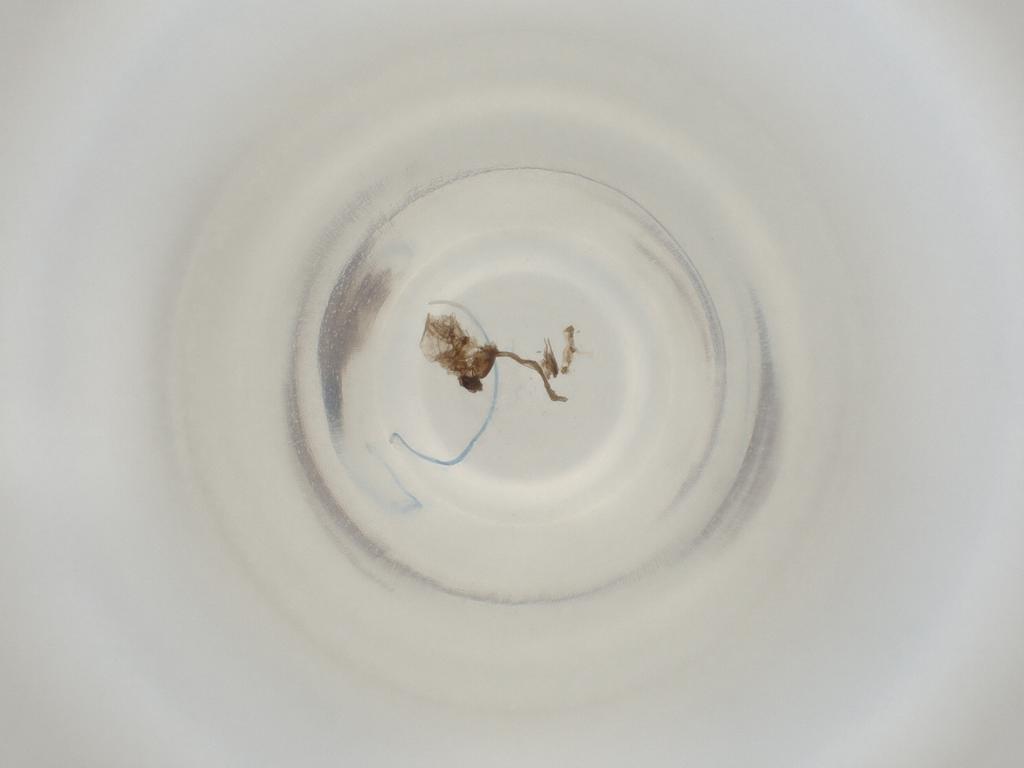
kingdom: Animalia
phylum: Arthropoda
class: Insecta
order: Diptera
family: Cecidomyiidae
